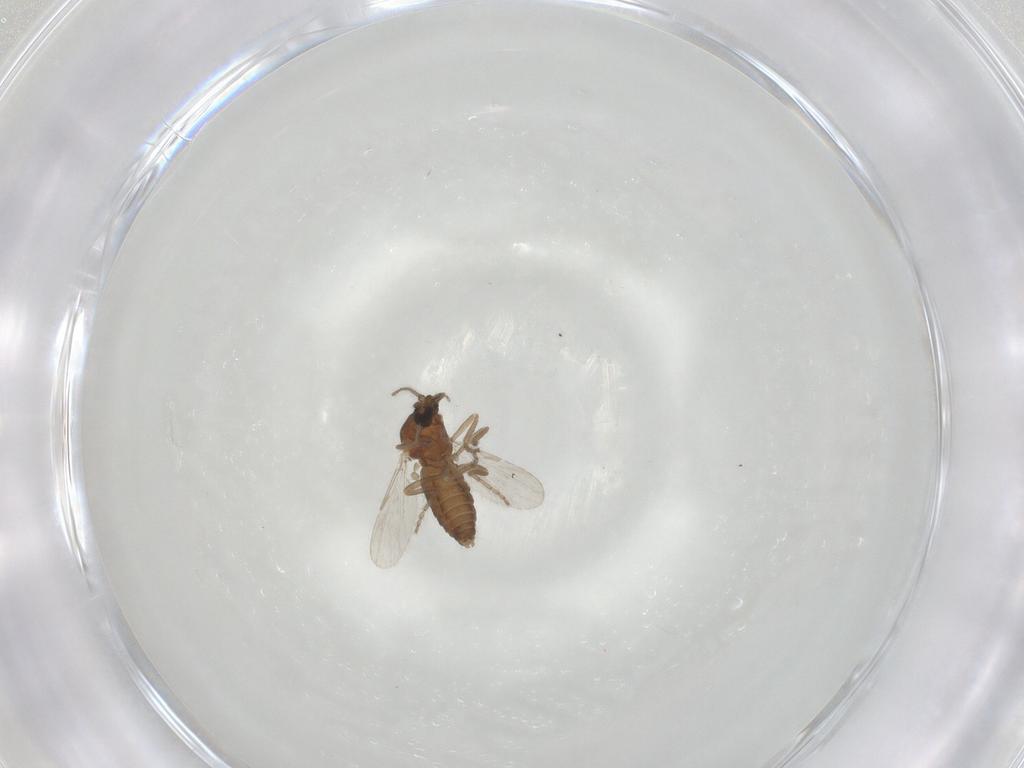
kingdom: Animalia
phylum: Arthropoda
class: Insecta
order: Diptera
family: Ceratopogonidae
